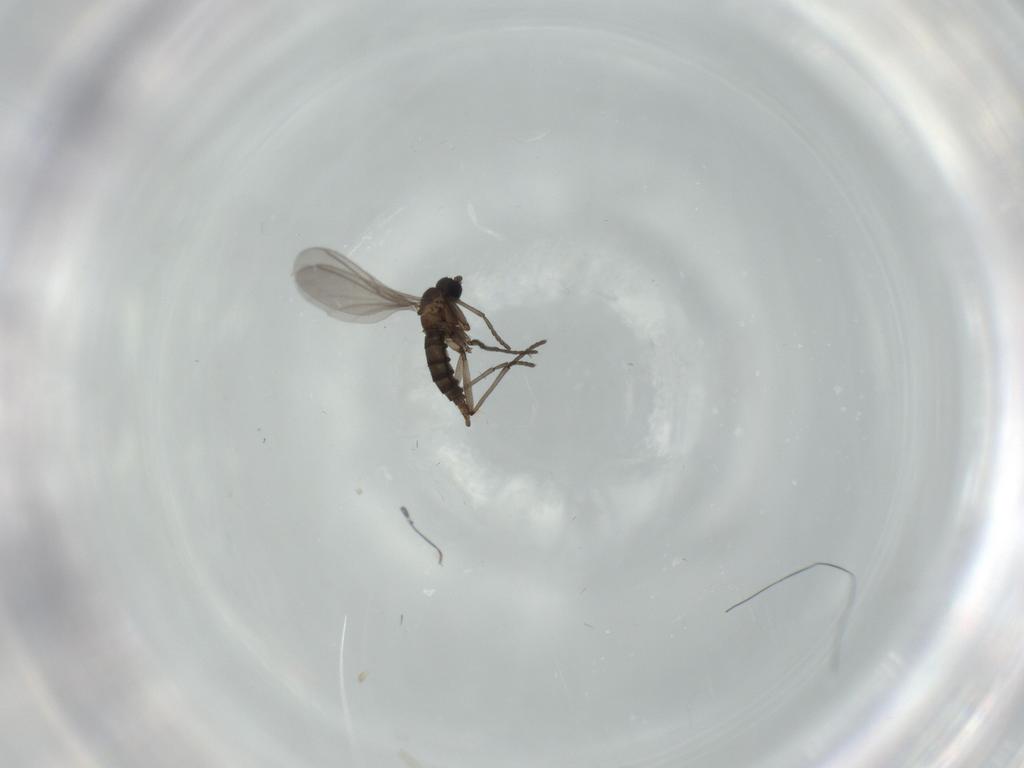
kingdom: Animalia
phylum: Arthropoda
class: Insecta
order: Diptera
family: Sciaridae
